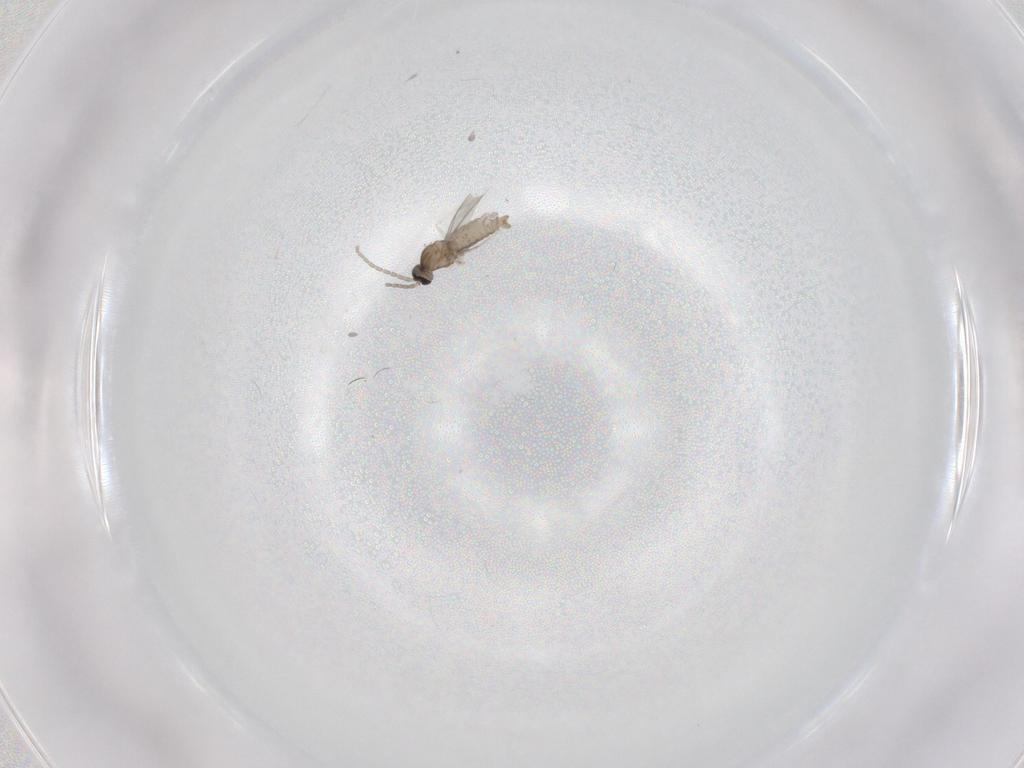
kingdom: Animalia
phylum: Arthropoda
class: Insecta
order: Diptera
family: Cecidomyiidae
